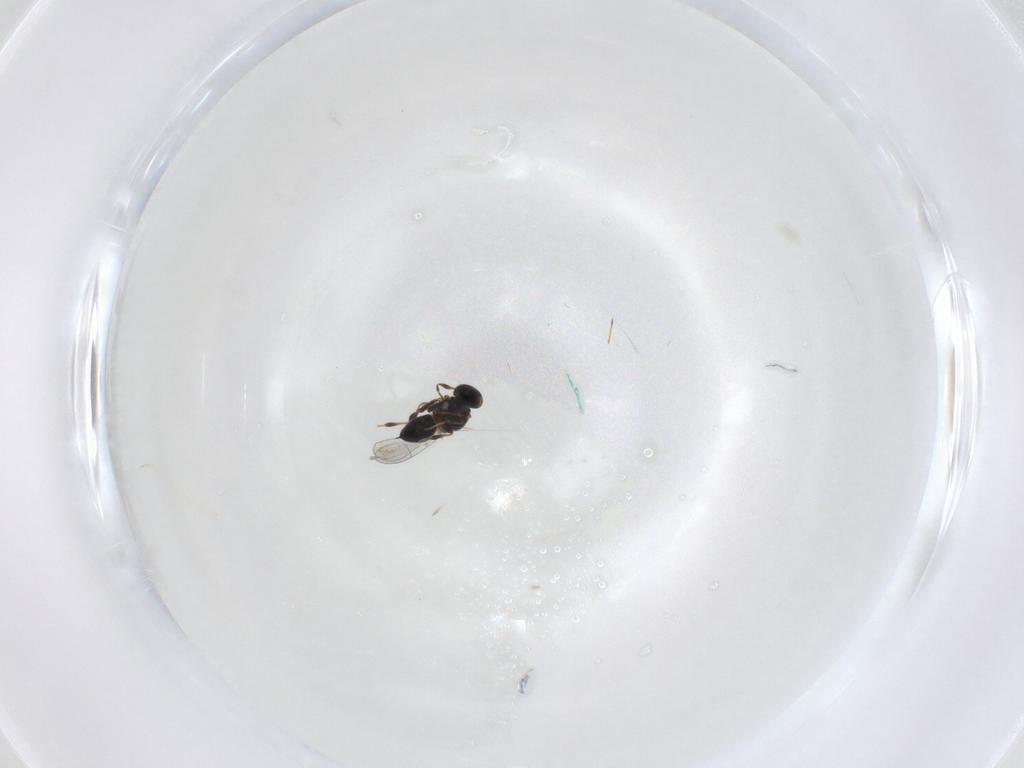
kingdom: Animalia
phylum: Arthropoda
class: Insecta
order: Hymenoptera
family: Platygastridae
